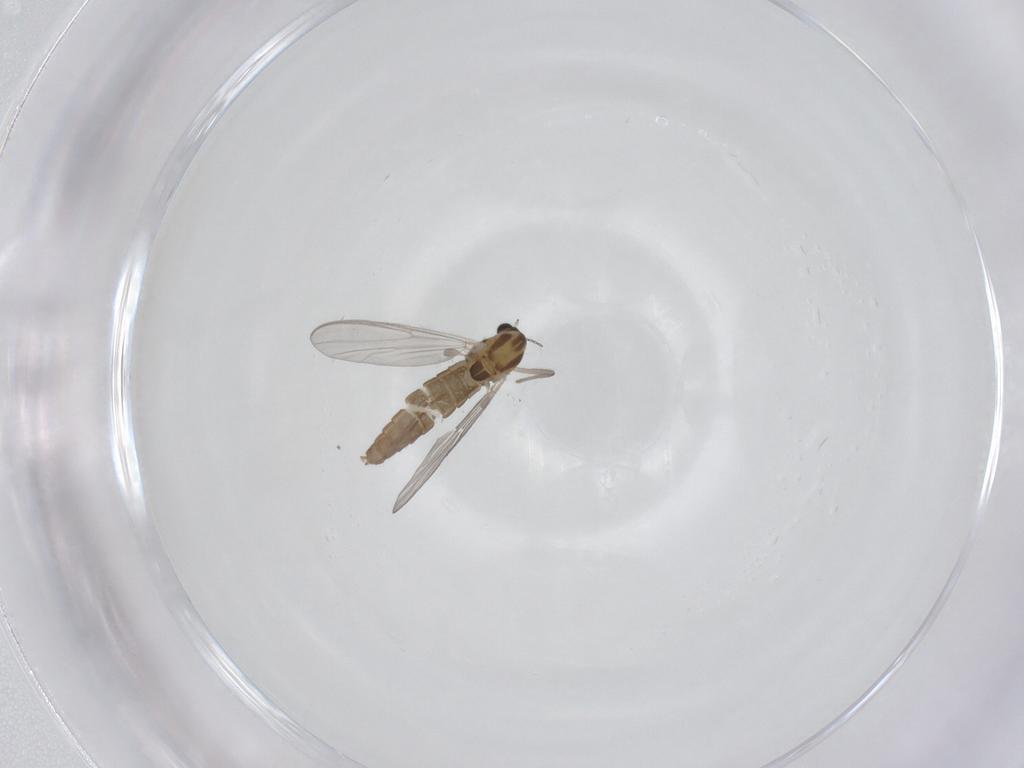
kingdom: Animalia
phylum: Arthropoda
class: Insecta
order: Diptera
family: Chironomidae
